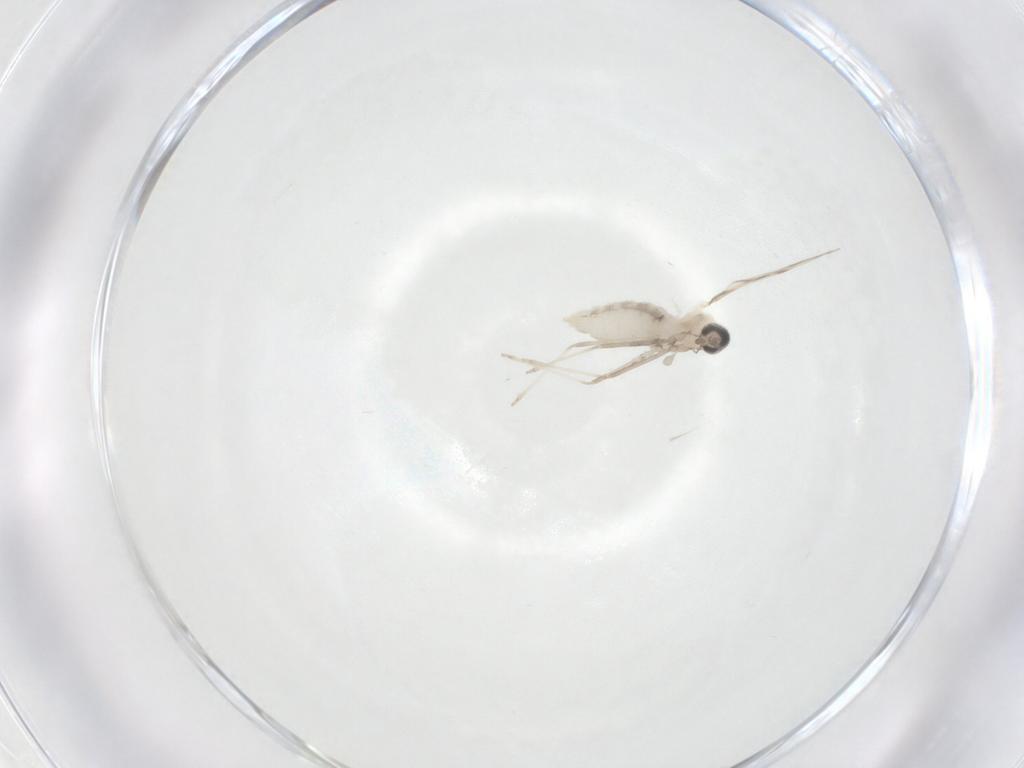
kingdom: Animalia
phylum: Arthropoda
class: Insecta
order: Diptera
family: Cecidomyiidae
